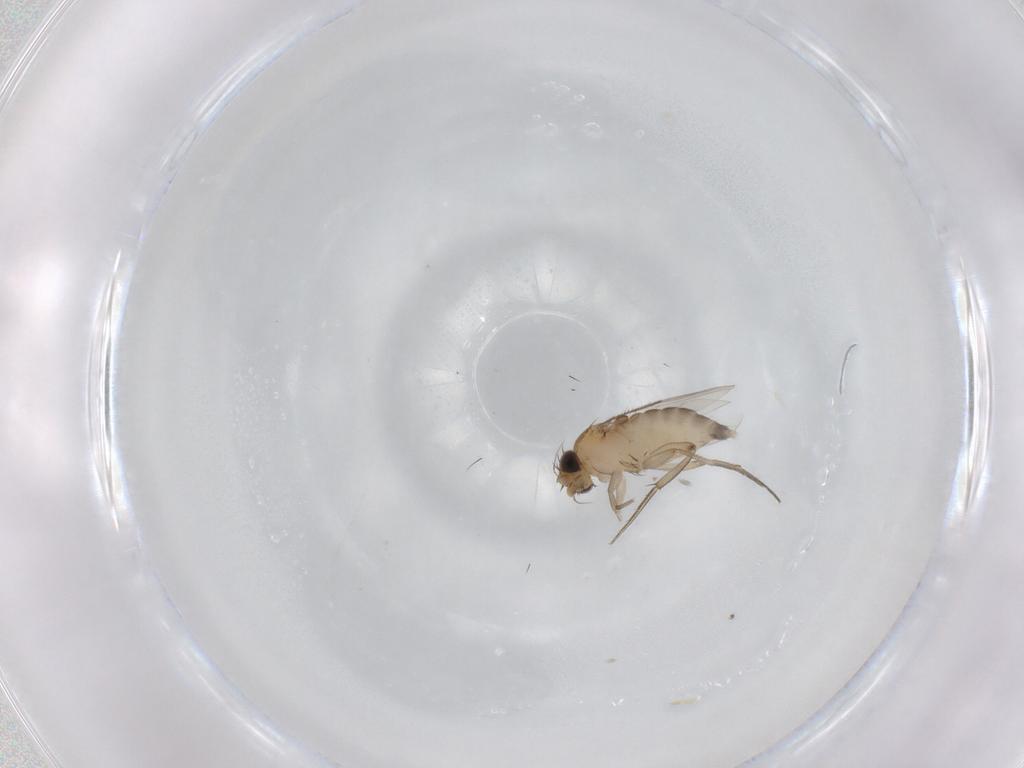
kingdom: Animalia
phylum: Arthropoda
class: Insecta
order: Diptera
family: Phoridae
